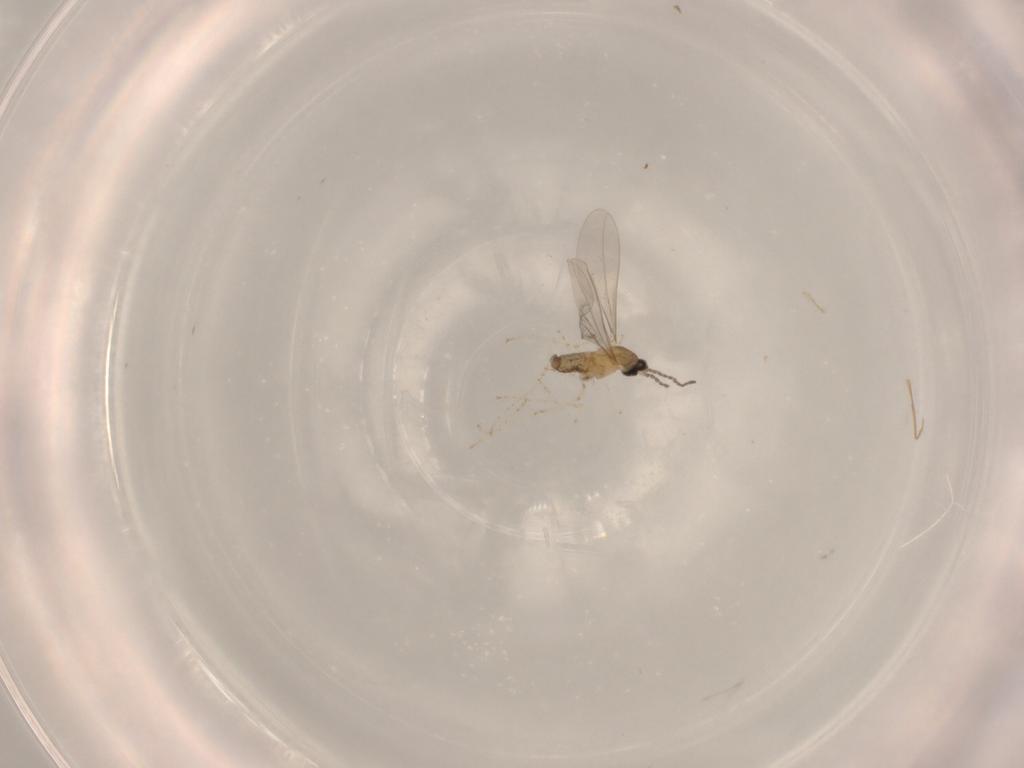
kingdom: Animalia
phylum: Arthropoda
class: Insecta
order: Diptera
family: Cecidomyiidae
